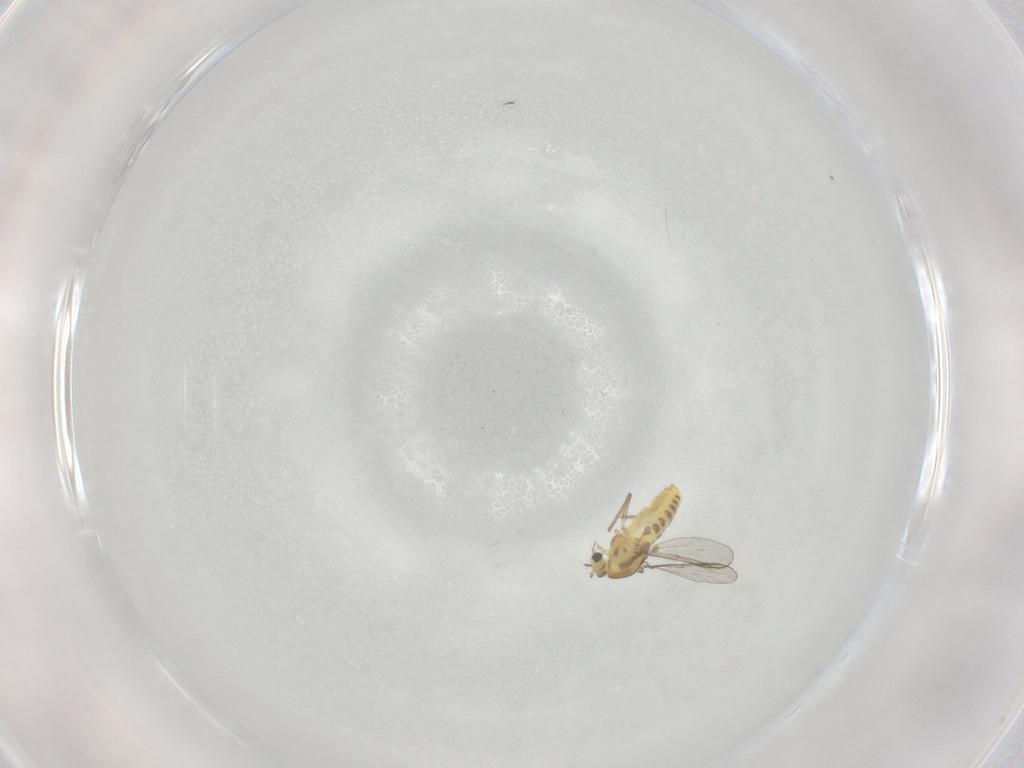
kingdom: Animalia
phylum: Arthropoda
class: Insecta
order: Diptera
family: Chironomidae
